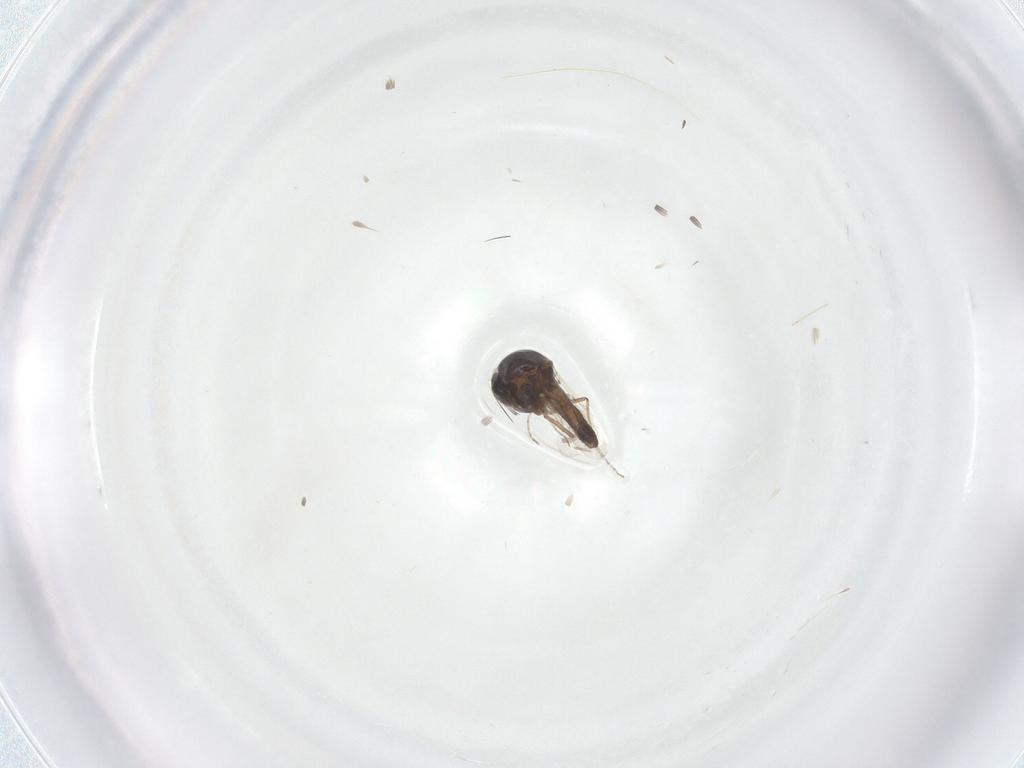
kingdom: Animalia
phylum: Arthropoda
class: Insecta
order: Diptera
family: Ceratopogonidae
